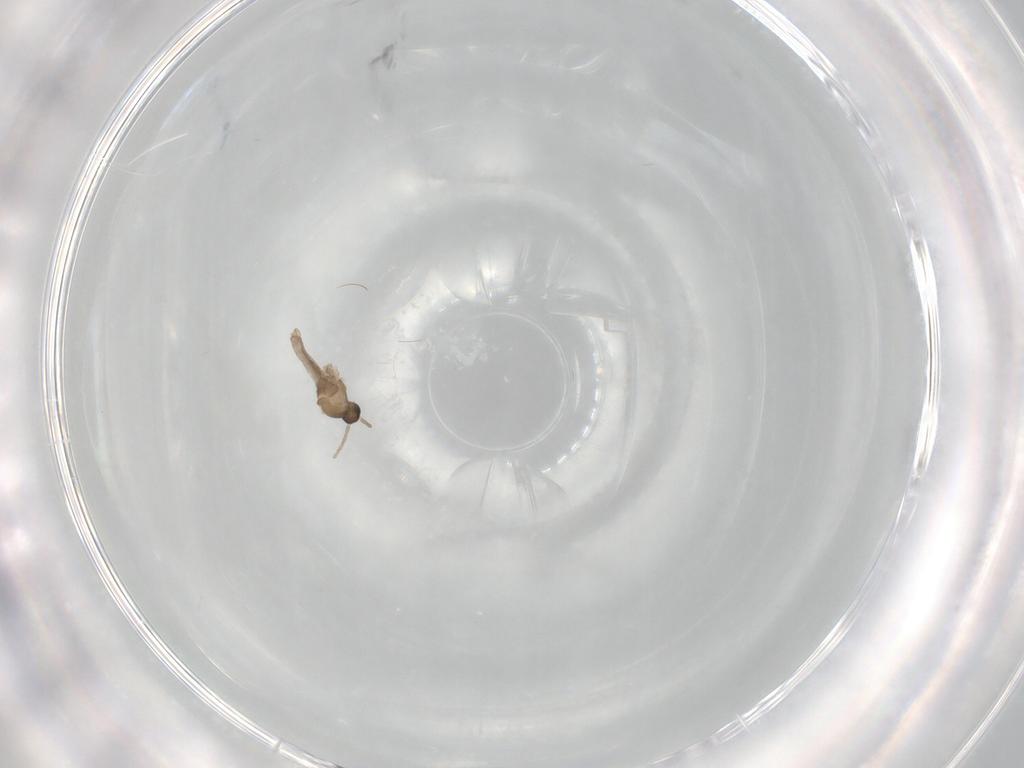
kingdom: Animalia
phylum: Arthropoda
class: Insecta
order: Diptera
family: Cecidomyiidae
